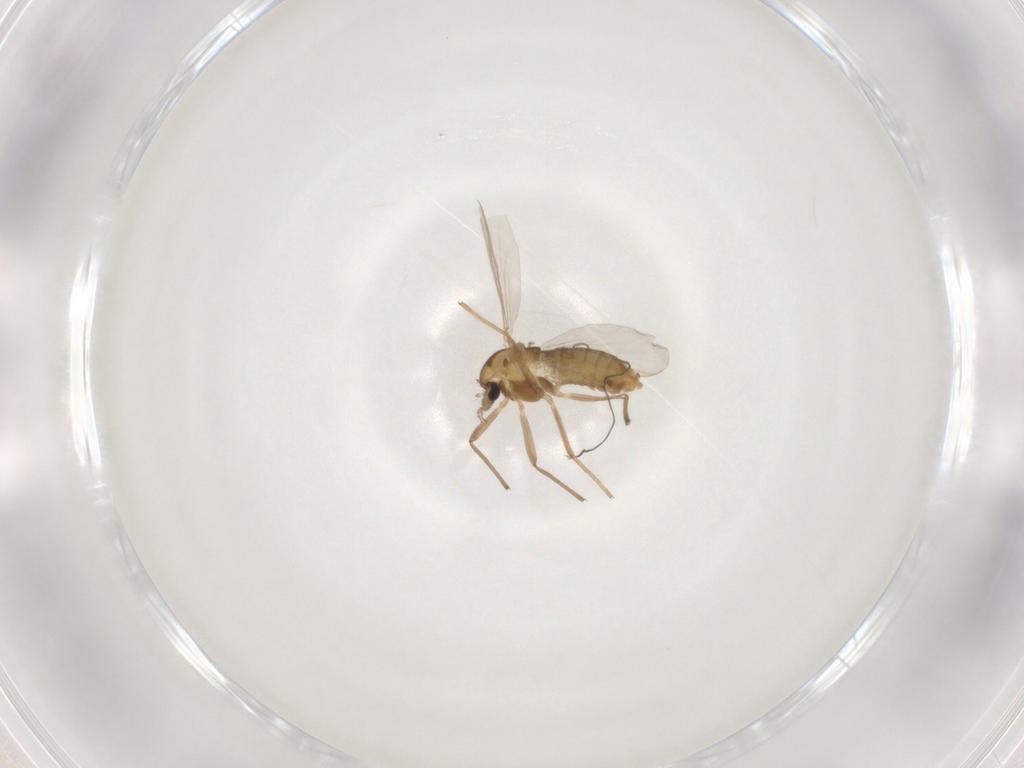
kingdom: Animalia
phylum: Arthropoda
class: Insecta
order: Diptera
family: Chironomidae
